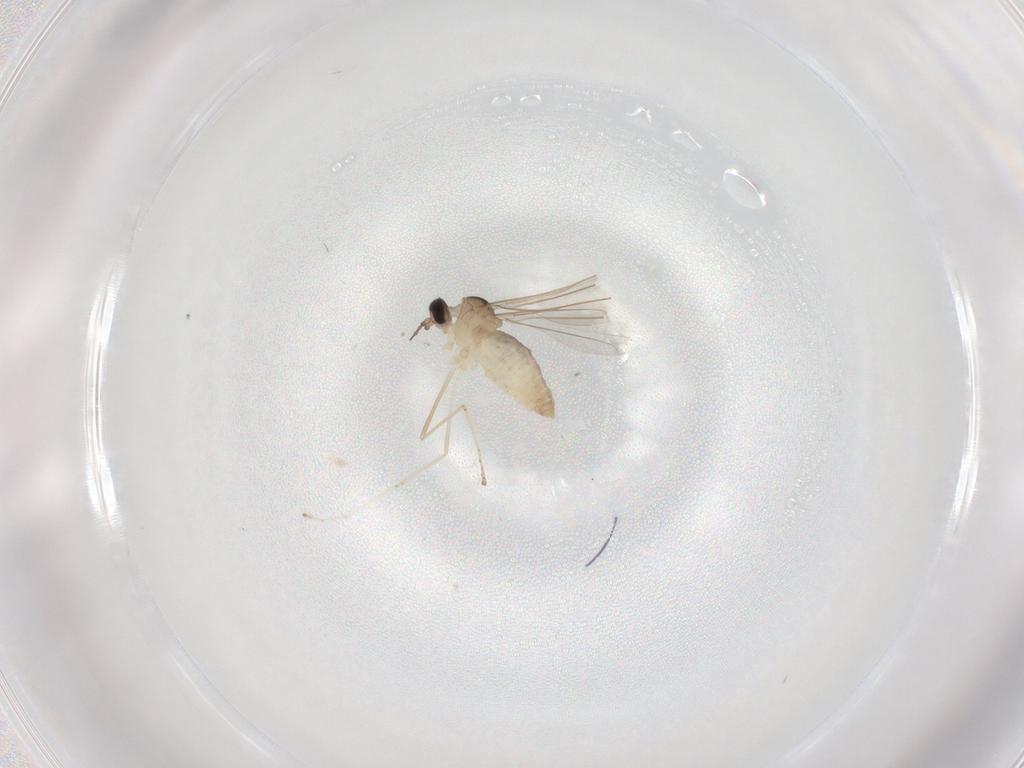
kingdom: Animalia
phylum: Arthropoda
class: Insecta
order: Diptera
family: Cecidomyiidae
